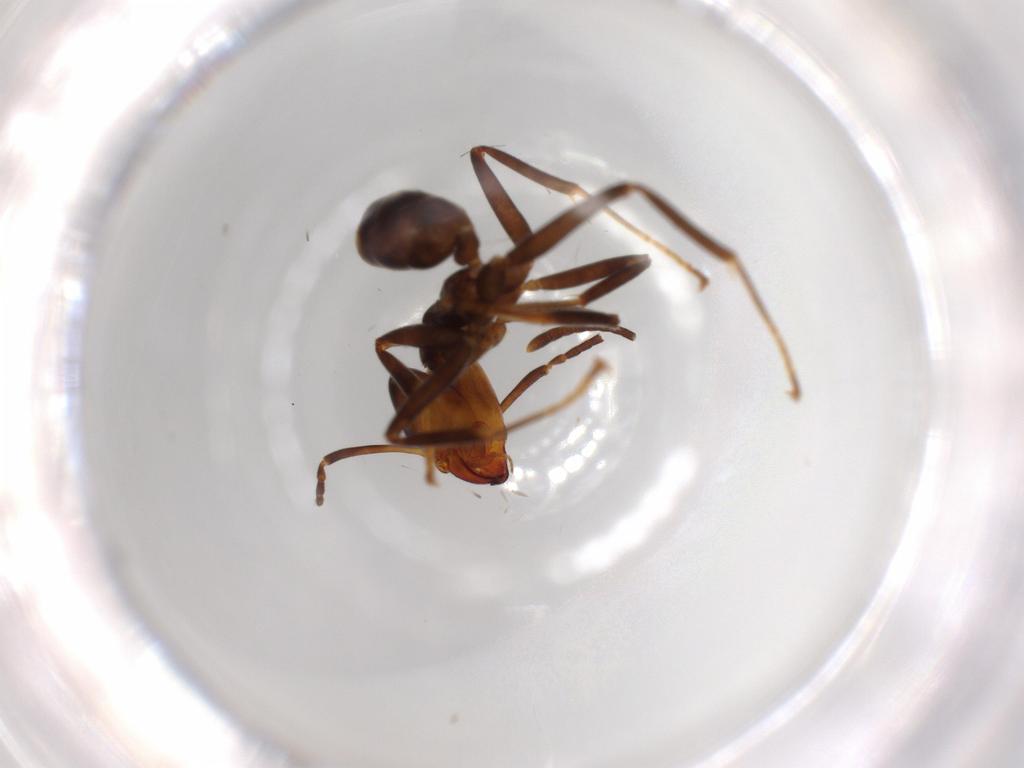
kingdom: Animalia
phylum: Arthropoda
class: Insecta
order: Hymenoptera
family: Formicidae
